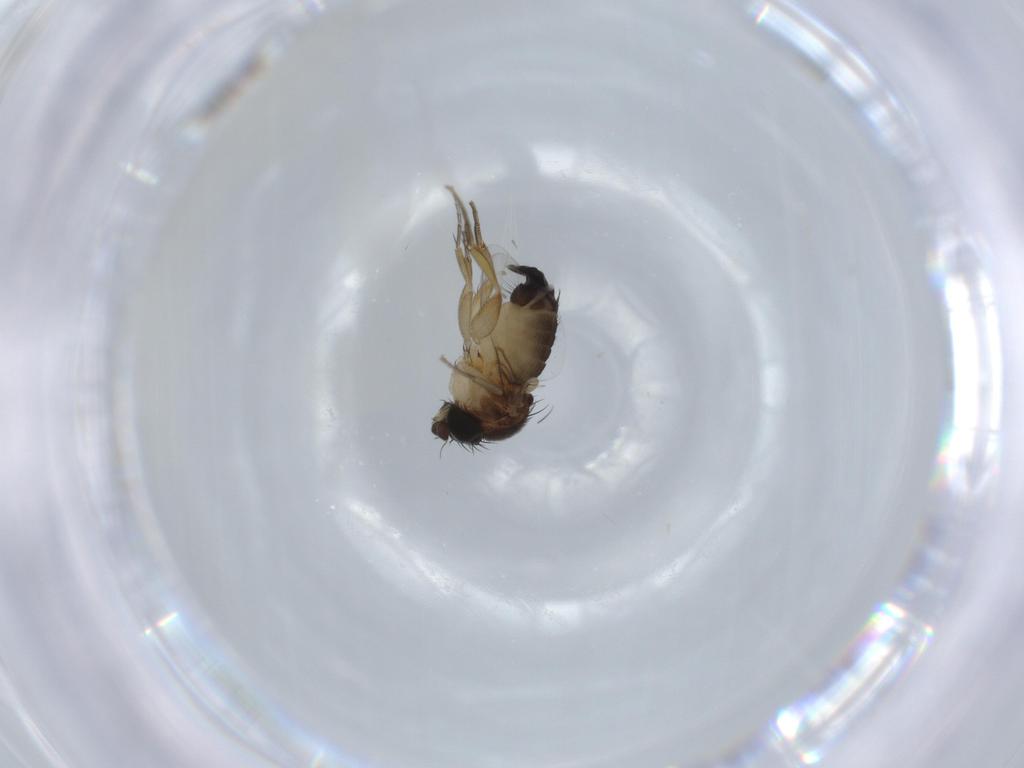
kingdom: Animalia
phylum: Arthropoda
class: Insecta
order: Diptera
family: Phoridae
